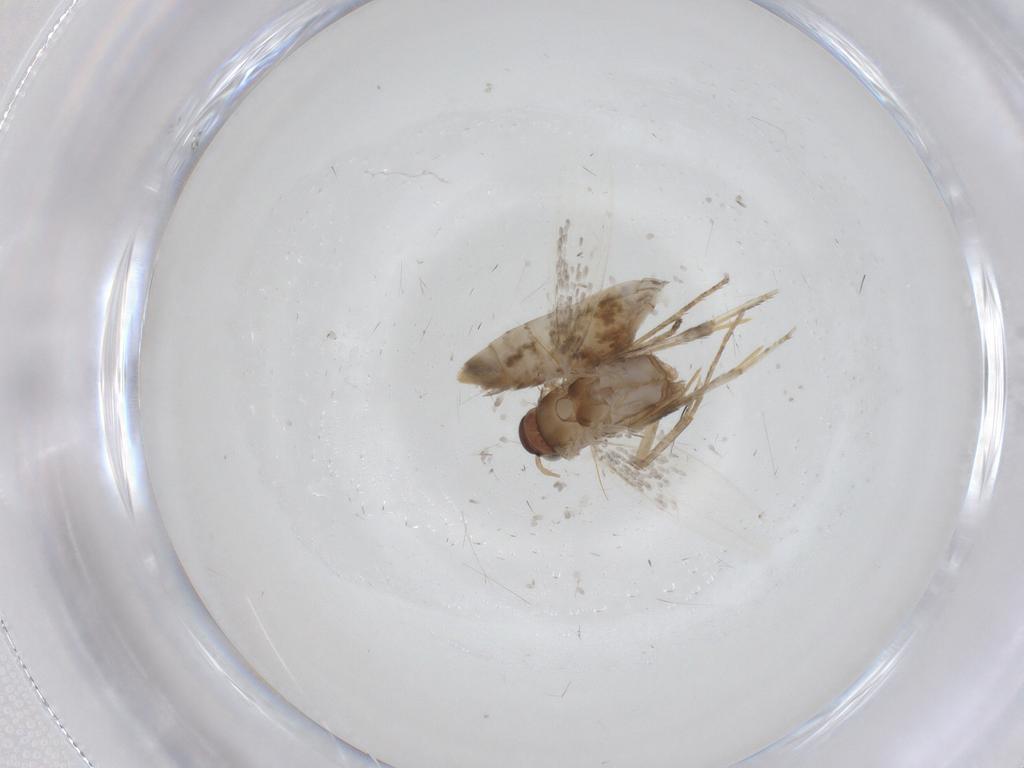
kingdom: Animalia
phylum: Arthropoda
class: Insecta
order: Lepidoptera
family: Glyphipterigidae
